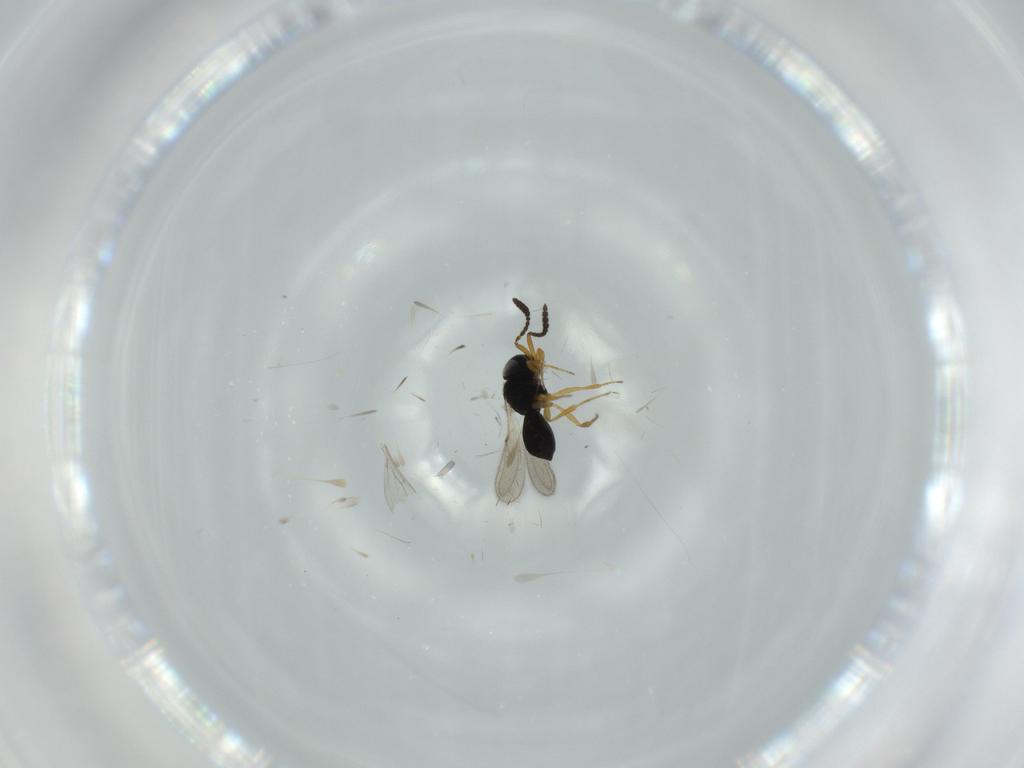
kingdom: Animalia
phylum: Arthropoda
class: Insecta
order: Hymenoptera
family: Scelionidae
